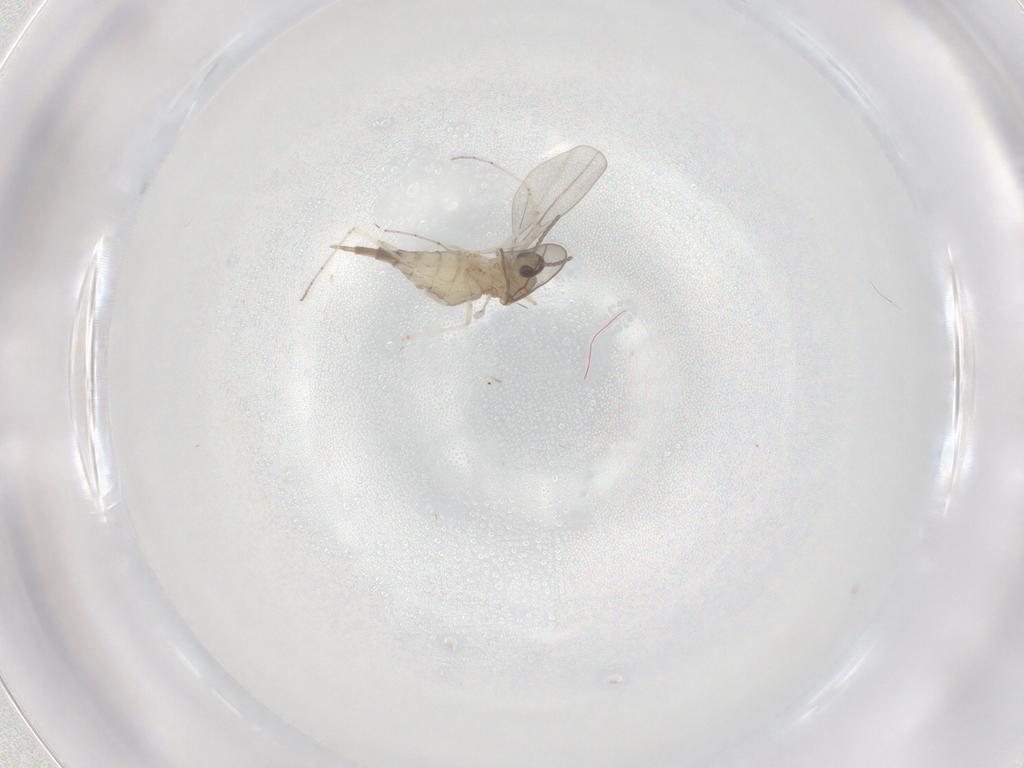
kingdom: Animalia
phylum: Arthropoda
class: Insecta
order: Diptera
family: Cecidomyiidae
